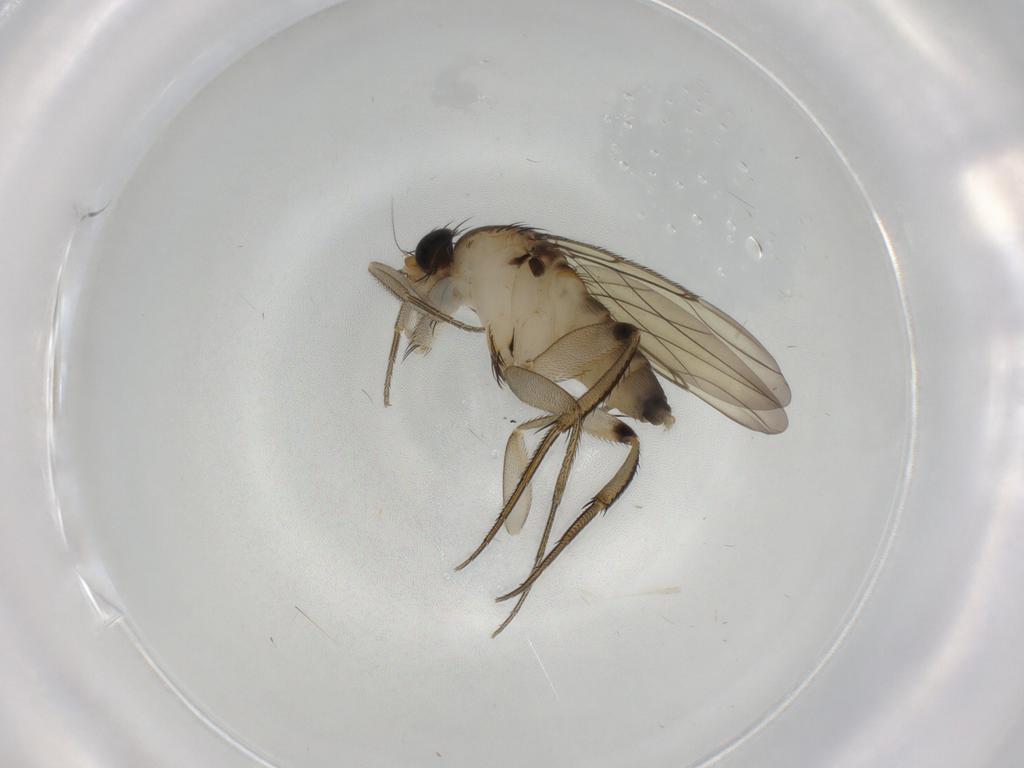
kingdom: Animalia
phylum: Arthropoda
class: Insecta
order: Diptera
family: Phoridae
